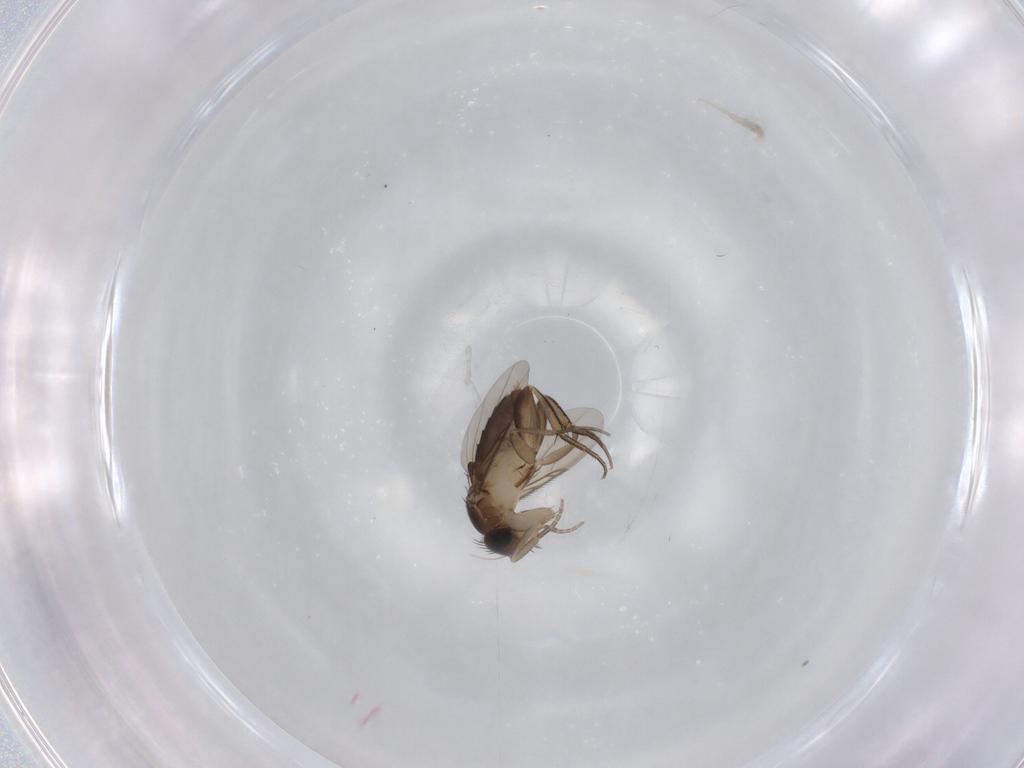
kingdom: Animalia
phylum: Arthropoda
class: Insecta
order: Diptera
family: Phoridae
